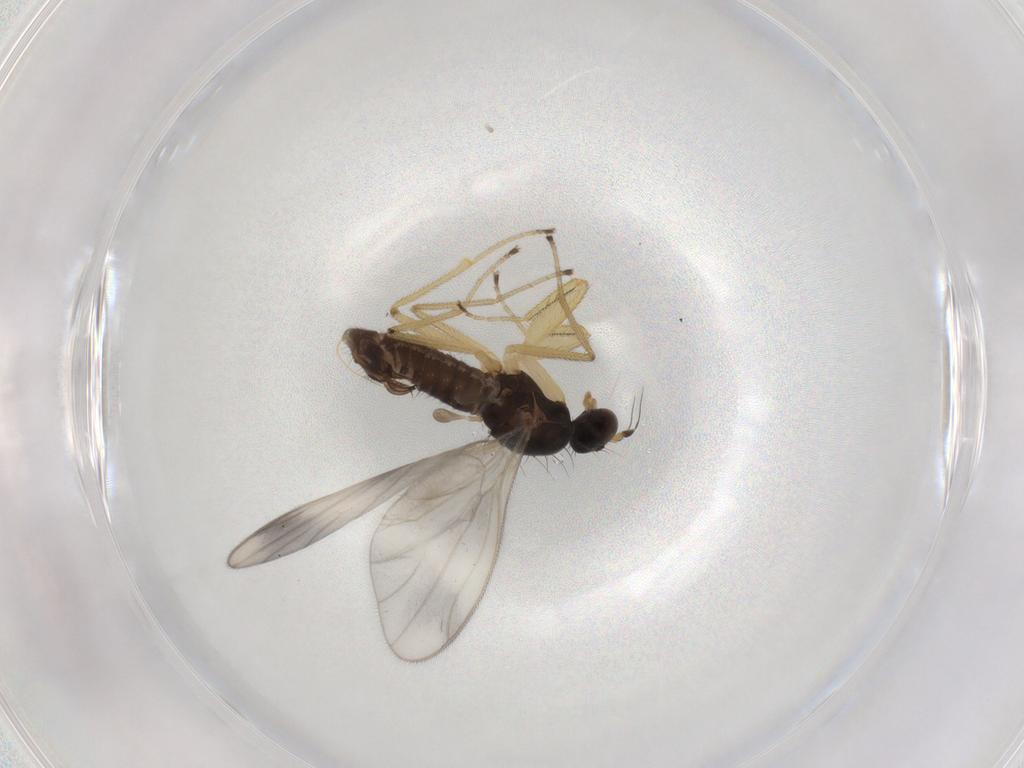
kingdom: Animalia
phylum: Arthropoda
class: Insecta
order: Diptera
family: Empididae
